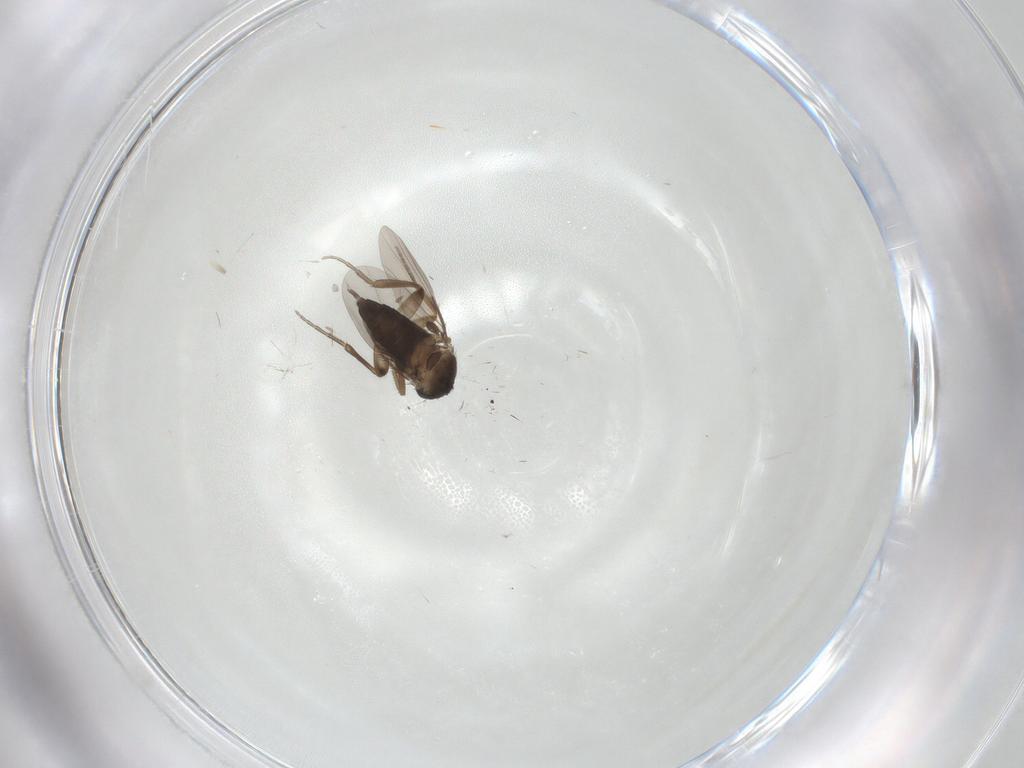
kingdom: Animalia
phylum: Arthropoda
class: Insecta
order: Diptera
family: Phoridae
